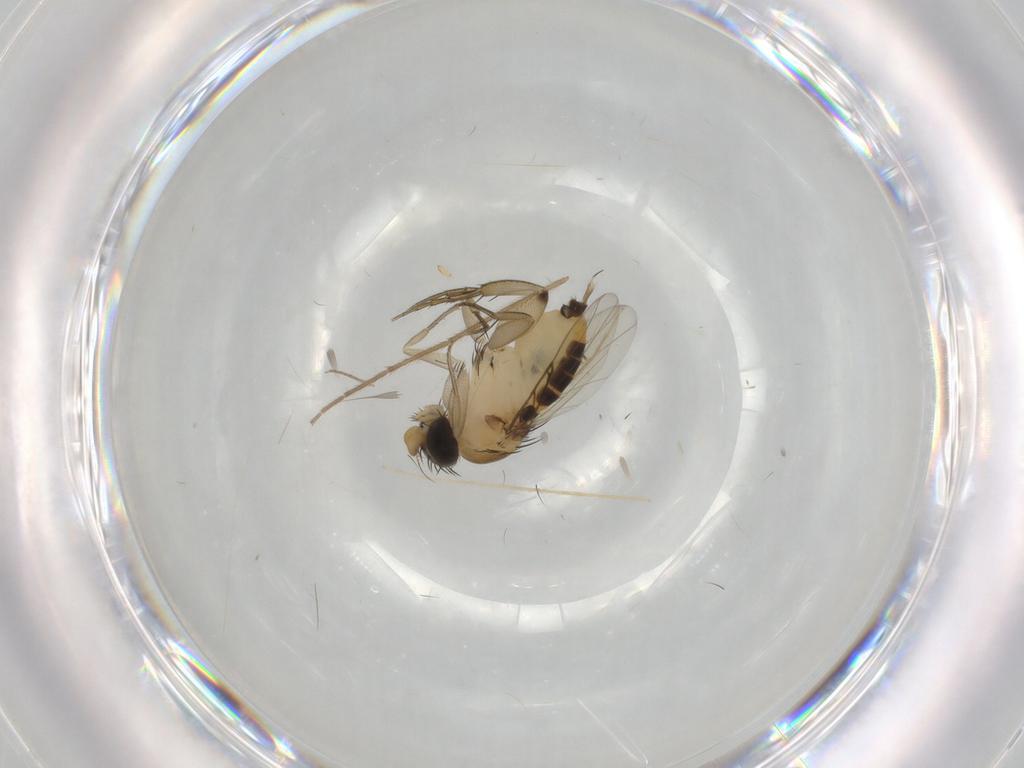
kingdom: Animalia
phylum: Arthropoda
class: Insecta
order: Diptera
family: Phoridae
